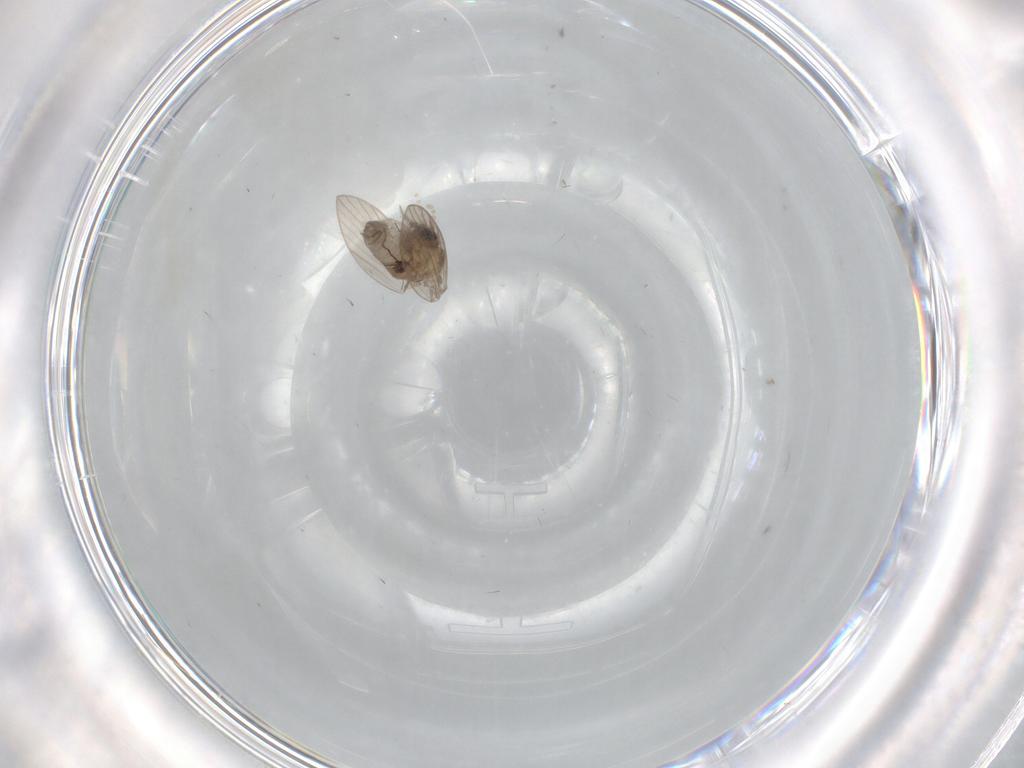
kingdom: Animalia
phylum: Arthropoda
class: Insecta
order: Diptera
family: Psychodidae
